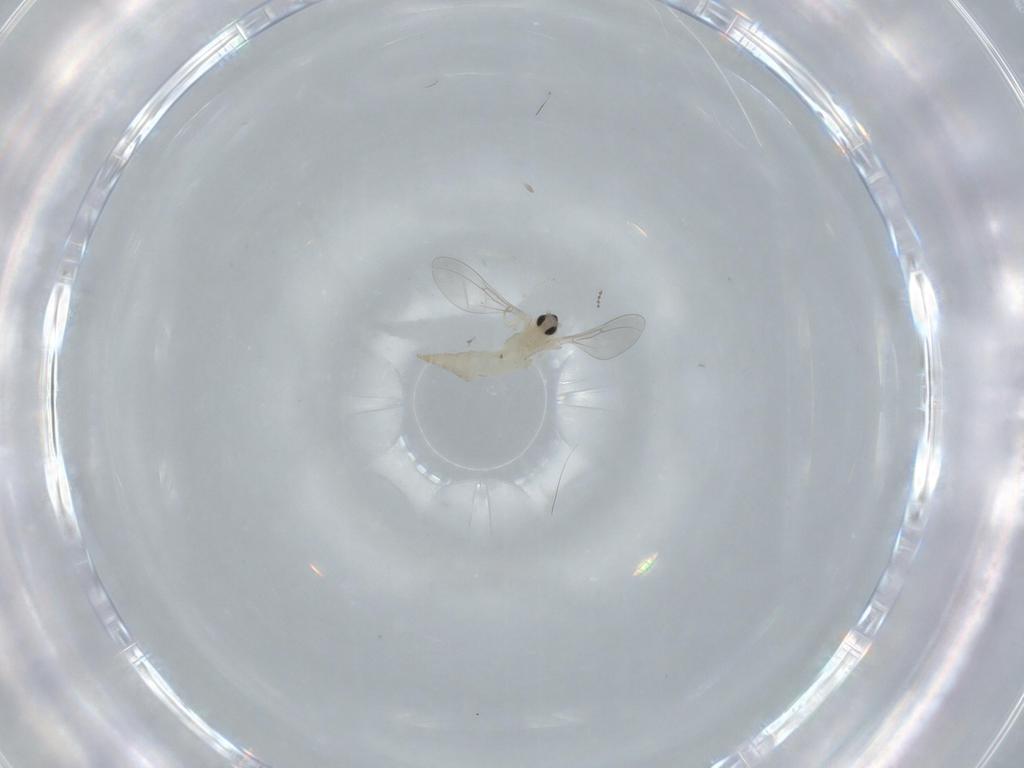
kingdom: Animalia
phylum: Arthropoda
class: Insecta
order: Diptera
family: Cecidomyiidae
